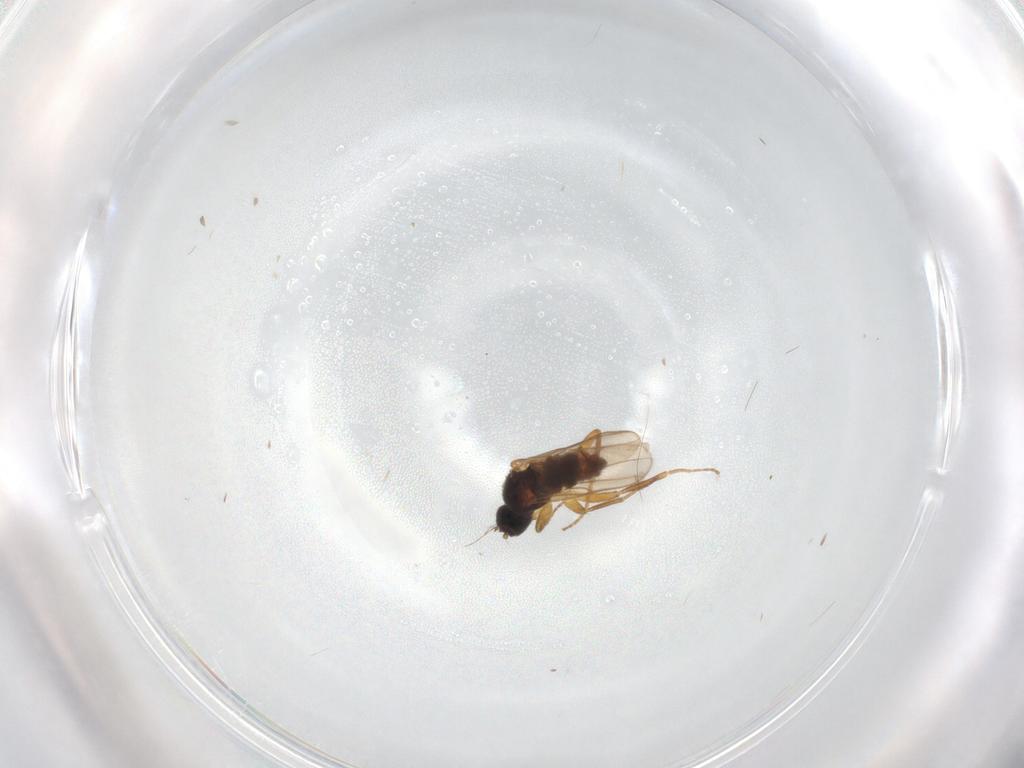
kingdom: Animalia
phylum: Arthropoda
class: Insecta
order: Diptera
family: Hybotidae
